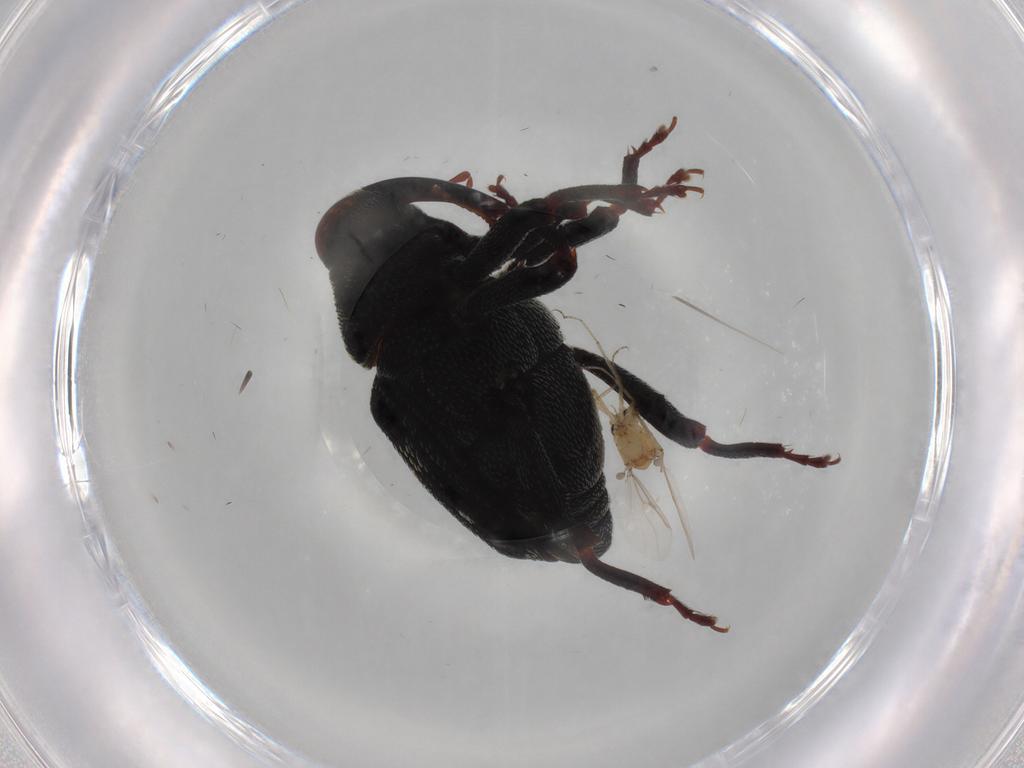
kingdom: Animalia
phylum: Arthropoda
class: Insecta
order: Diptera
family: Psychodidae
